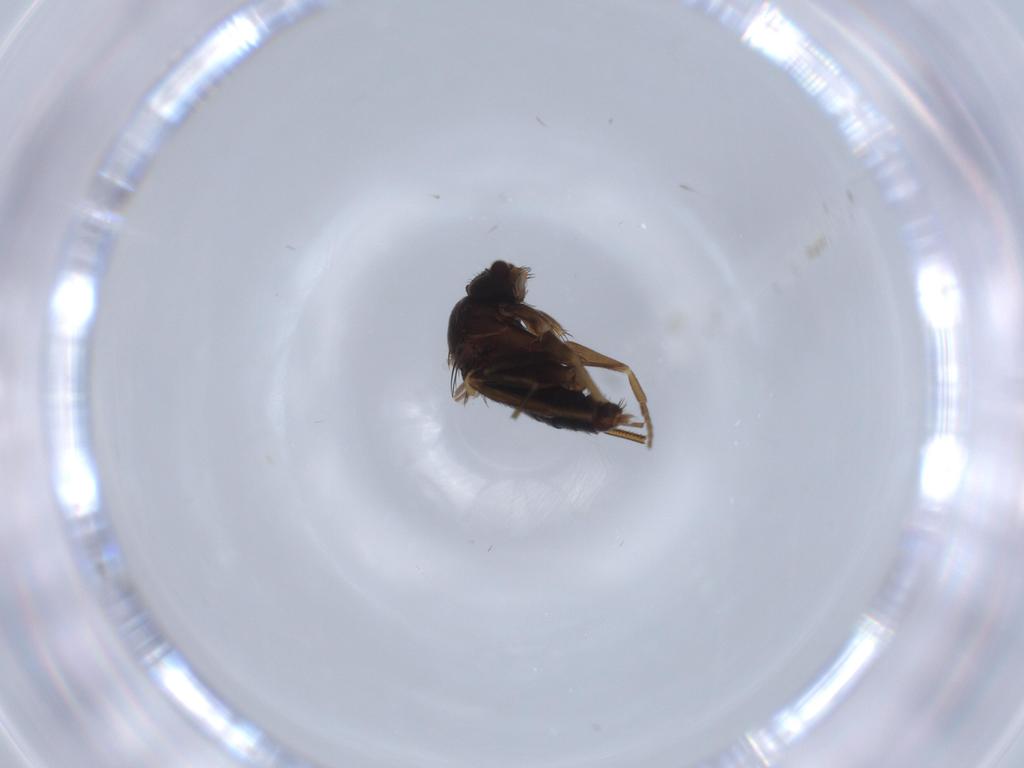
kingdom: Animalia
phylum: Arthropoda
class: Insecta
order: Diptera
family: Phoridae
